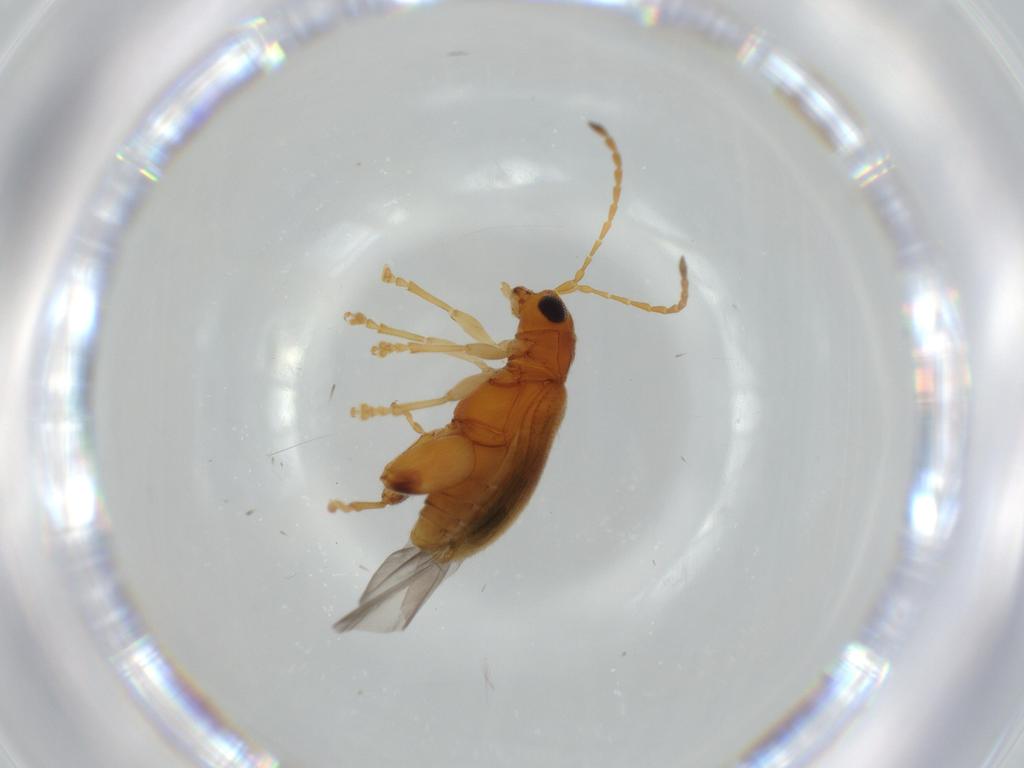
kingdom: Animalia
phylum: Arthropoda
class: Insecta
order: Coleoptera
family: Chrysomelidae
